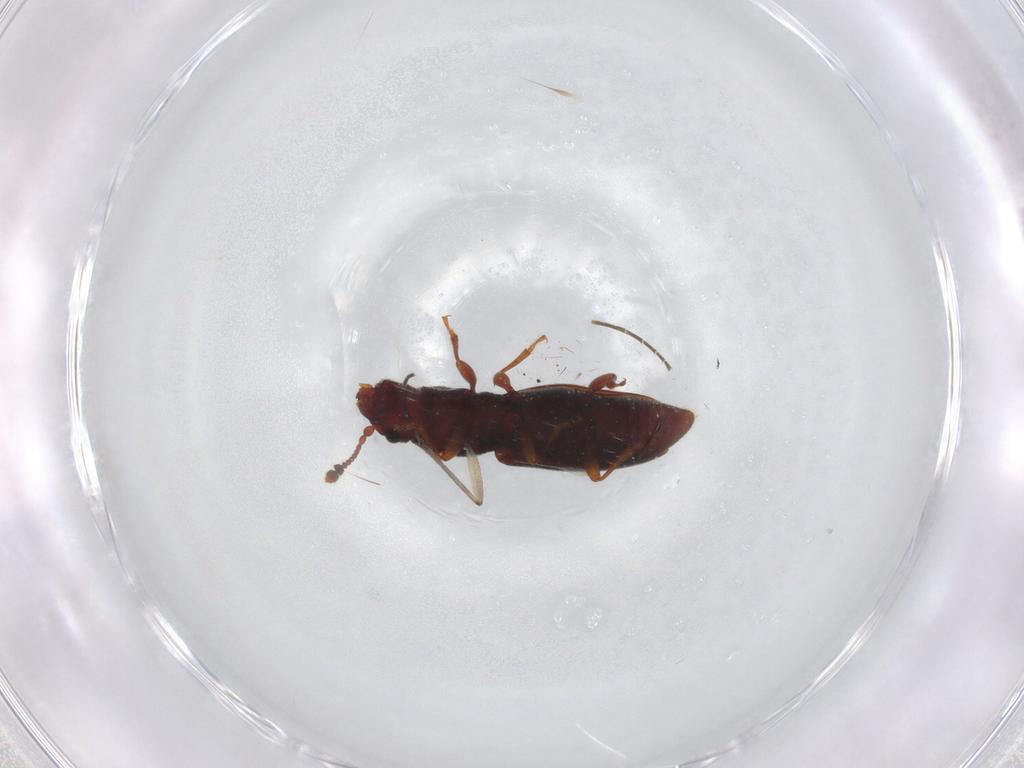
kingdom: Animalia
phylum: Arthropoda
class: Insecta
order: Coleoptera
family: Monotomidae
